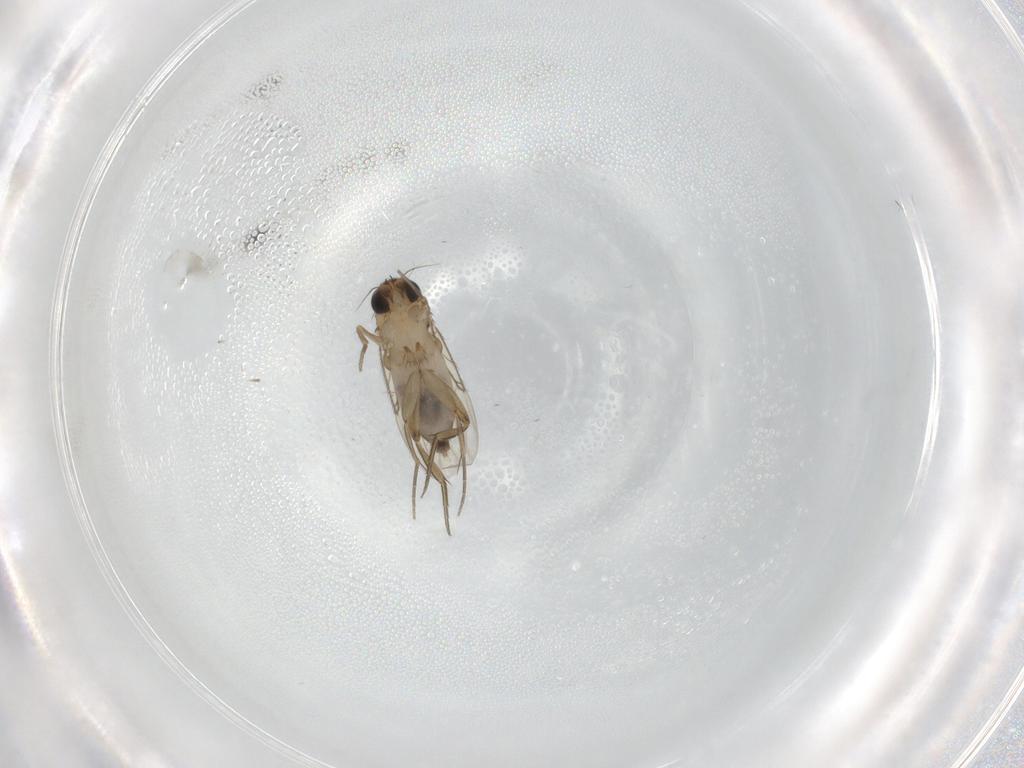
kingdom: Animalia
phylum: Arthropoda
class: Insecta
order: Diptera
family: Phoridae
